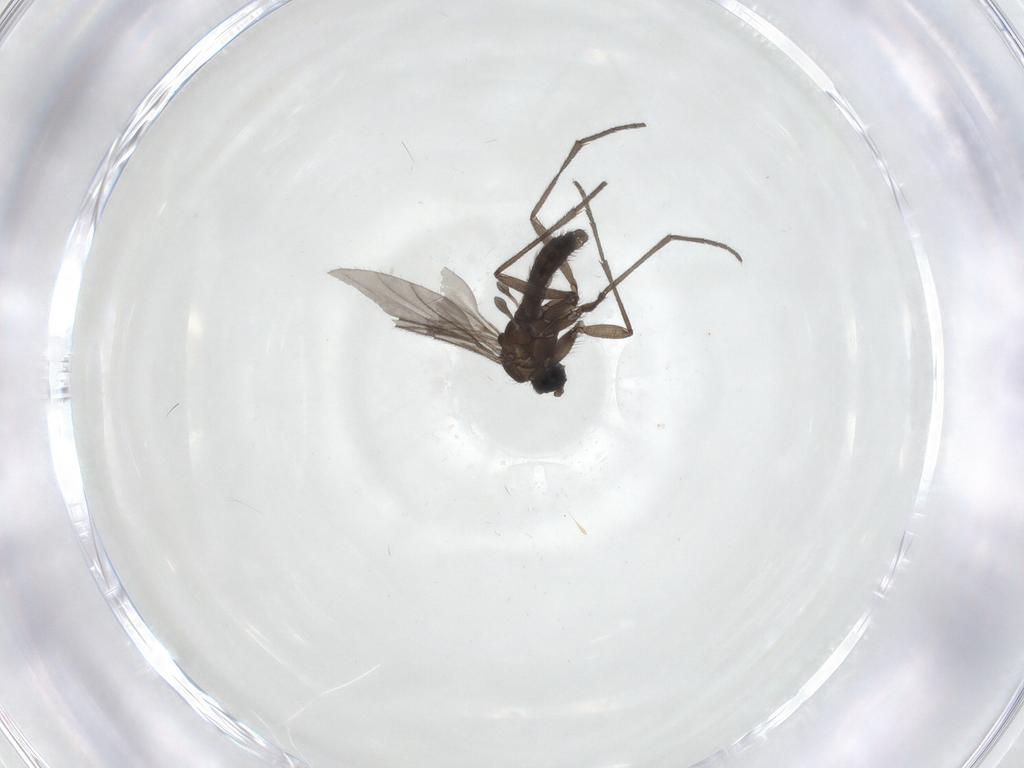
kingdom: Animalia
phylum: Arthropoda
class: Insecta
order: Diptera
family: Sciaridae
